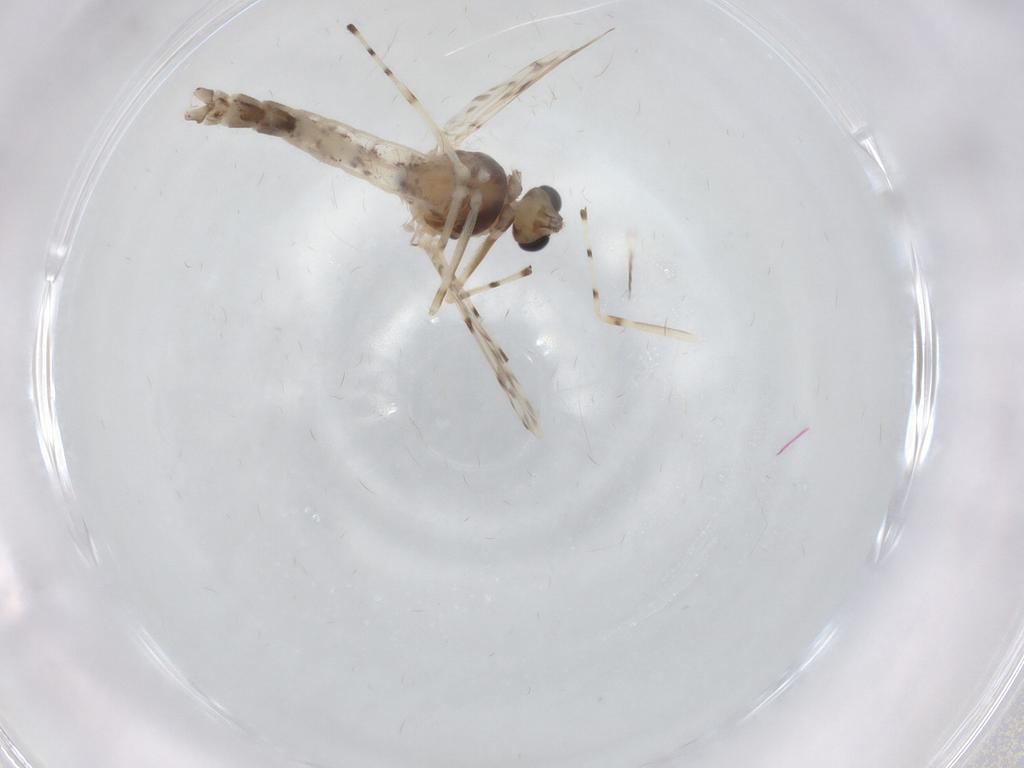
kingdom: Animalia
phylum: Arthropoda
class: Insecta
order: Diptera
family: Chironomidae
